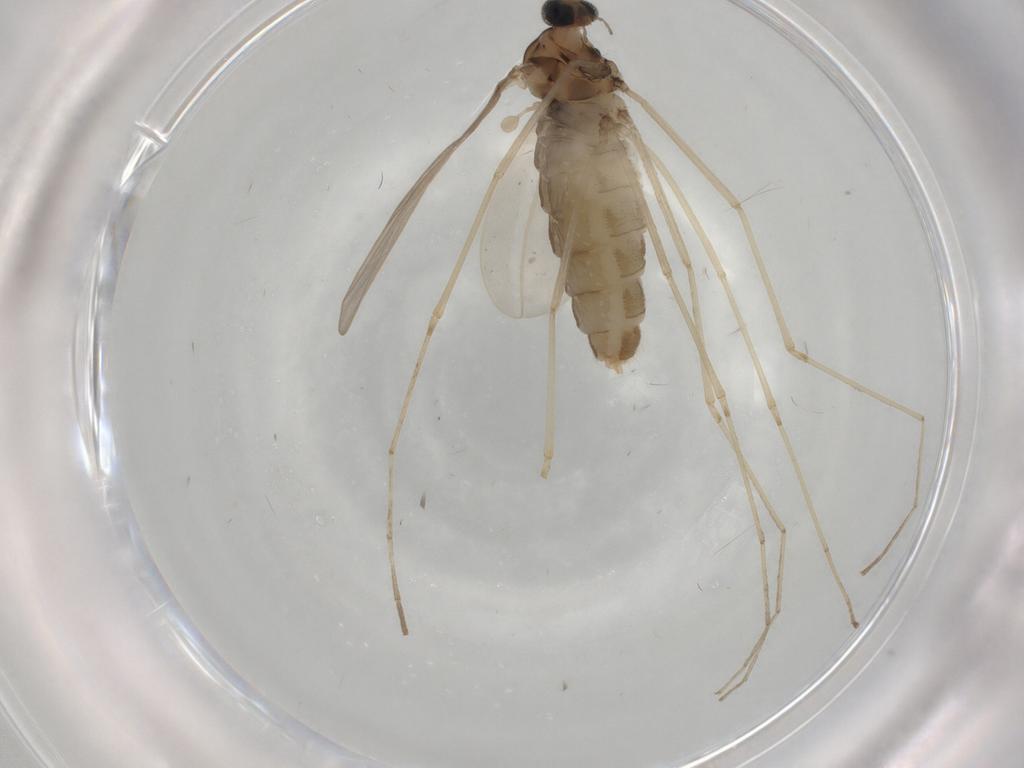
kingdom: Animalia
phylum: Arthropoda
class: Insecta
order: Diptera
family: Cecidomyiidae
